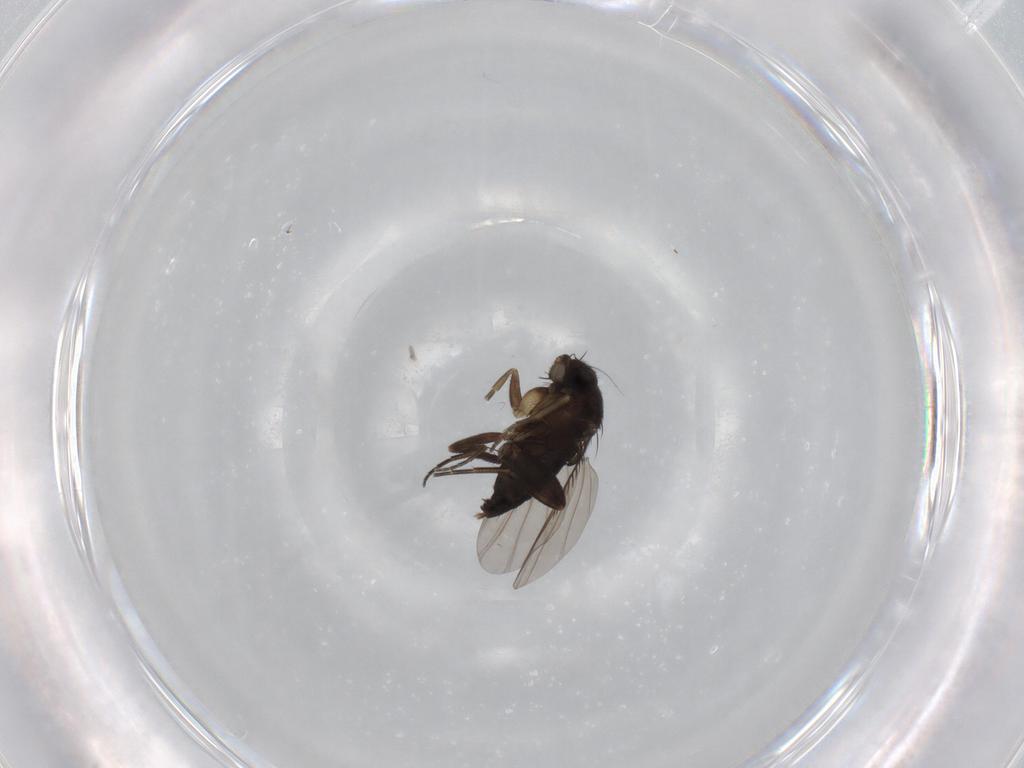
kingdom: Animalia
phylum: Arthropoda
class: Insecta
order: Diptera
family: Phoridae
